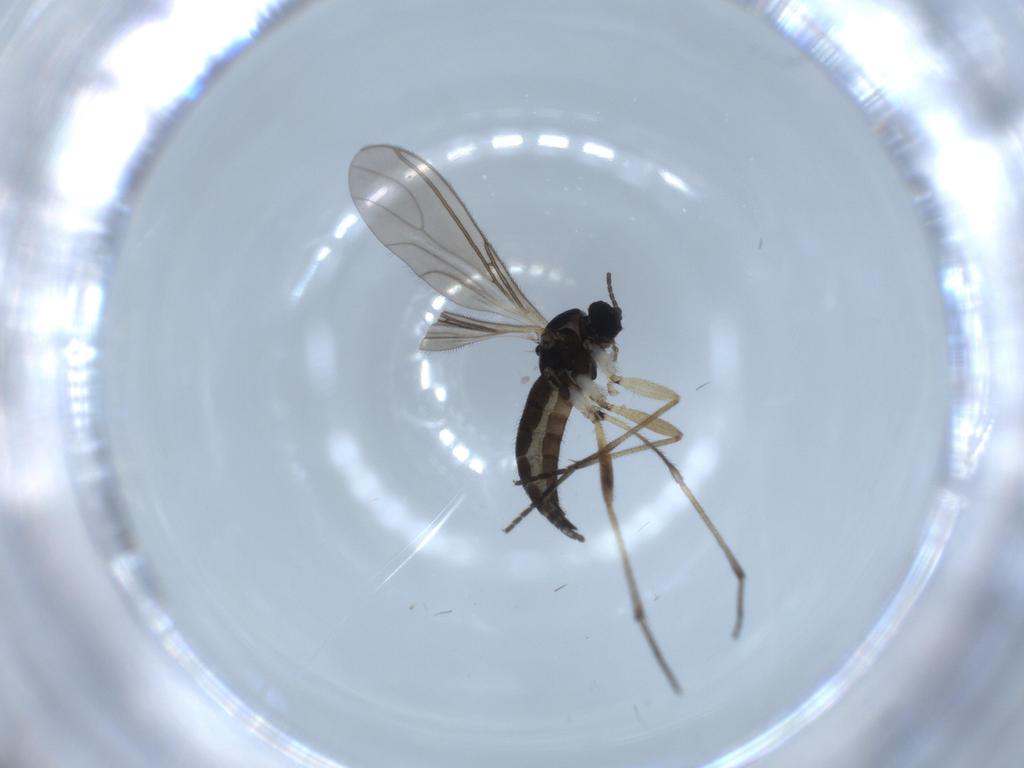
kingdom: Animalia
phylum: Arthropoda
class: Insecta
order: Diptera
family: Sciaridae
